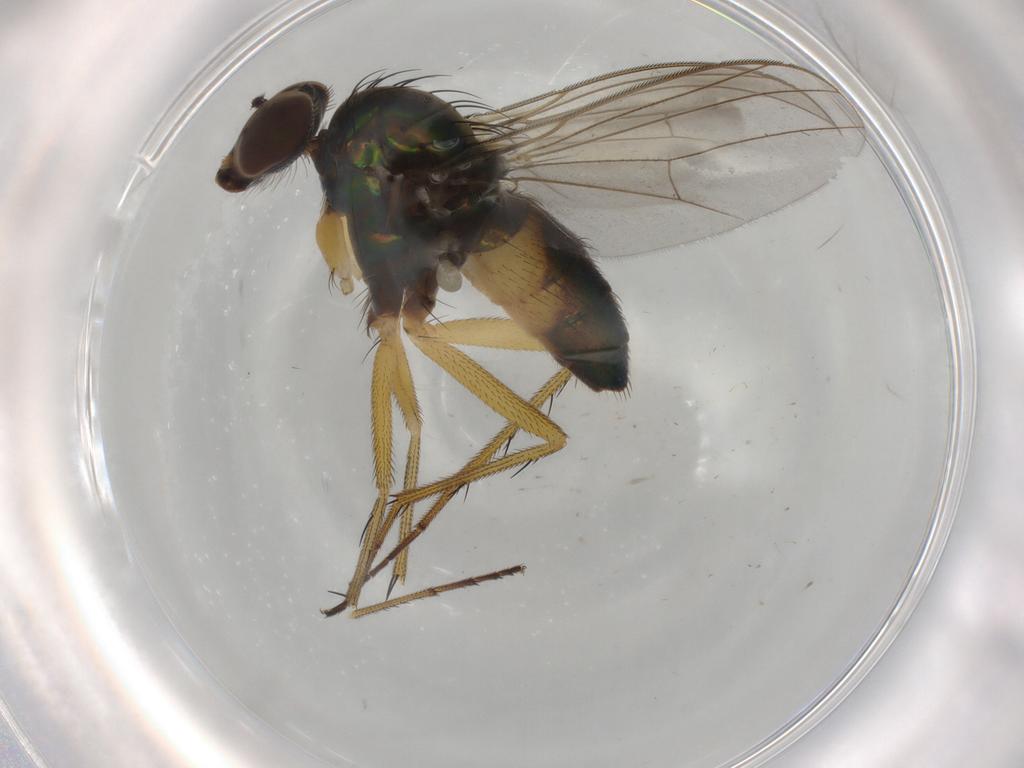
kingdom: Animalia
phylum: Arthropoda
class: Insecta
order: Diptera
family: Dolichopodidae
